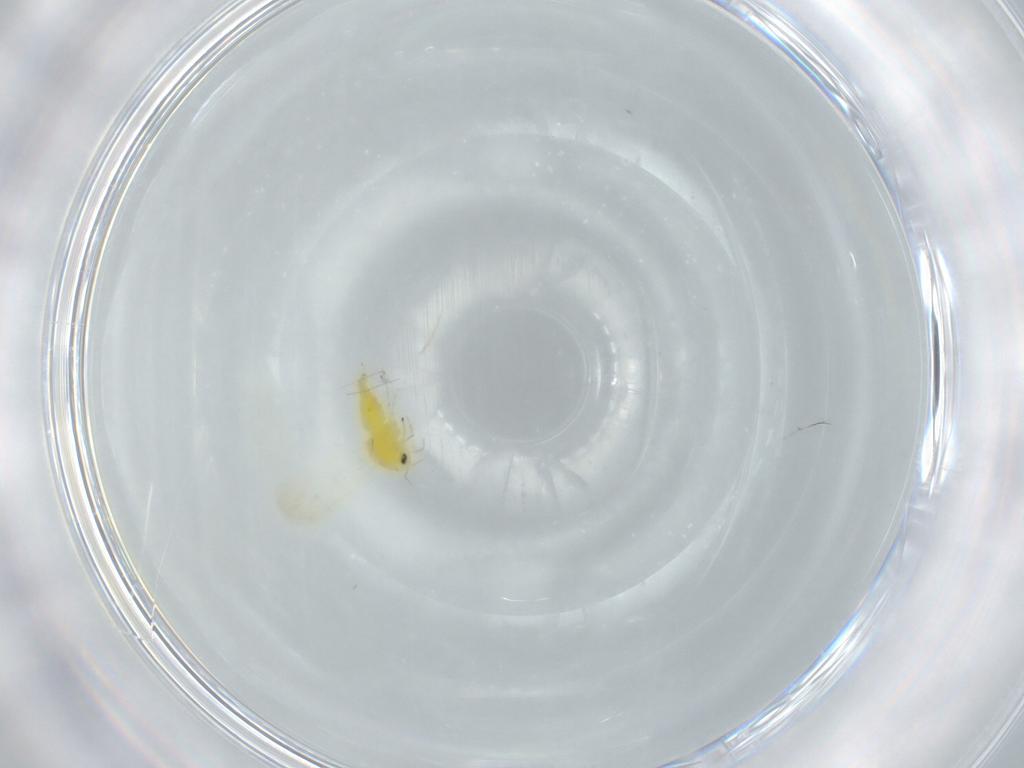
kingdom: Animalia
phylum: Arthropoda
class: Insecta
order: Hemiptera
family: Aleyrodidae
